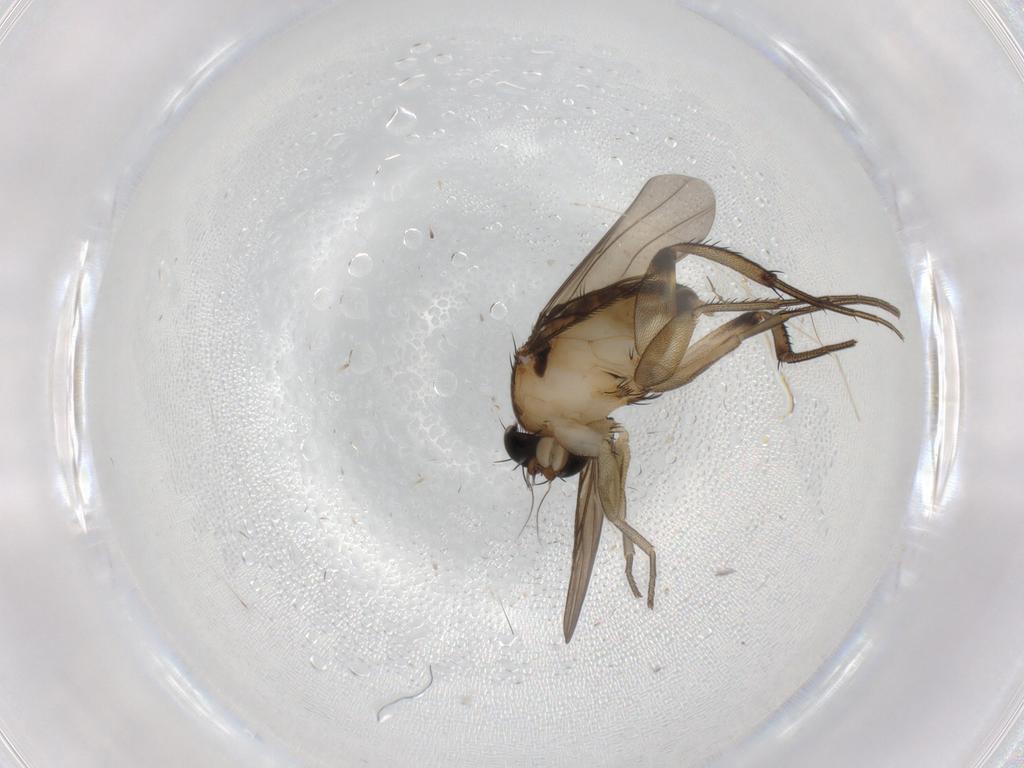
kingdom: Animalia
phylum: Arthropoda
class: Insecta
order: Diptera
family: Phoridae
